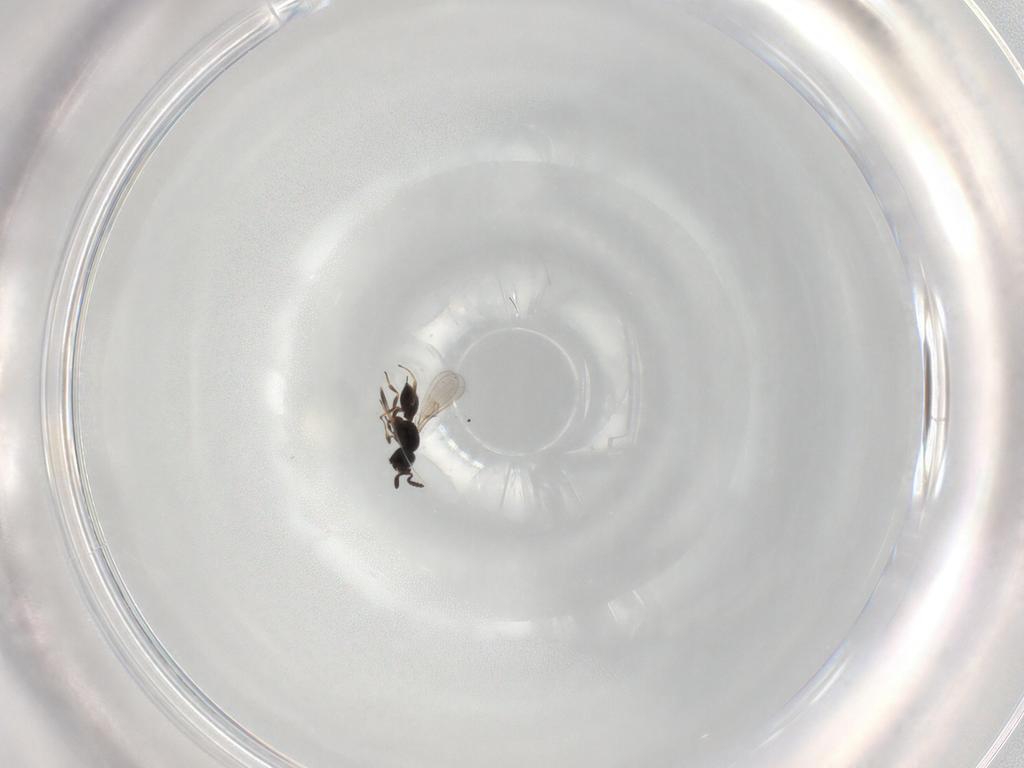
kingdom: Animalia
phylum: Arthropoda
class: Insecta
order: Hymenoptera
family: Scelionidae
